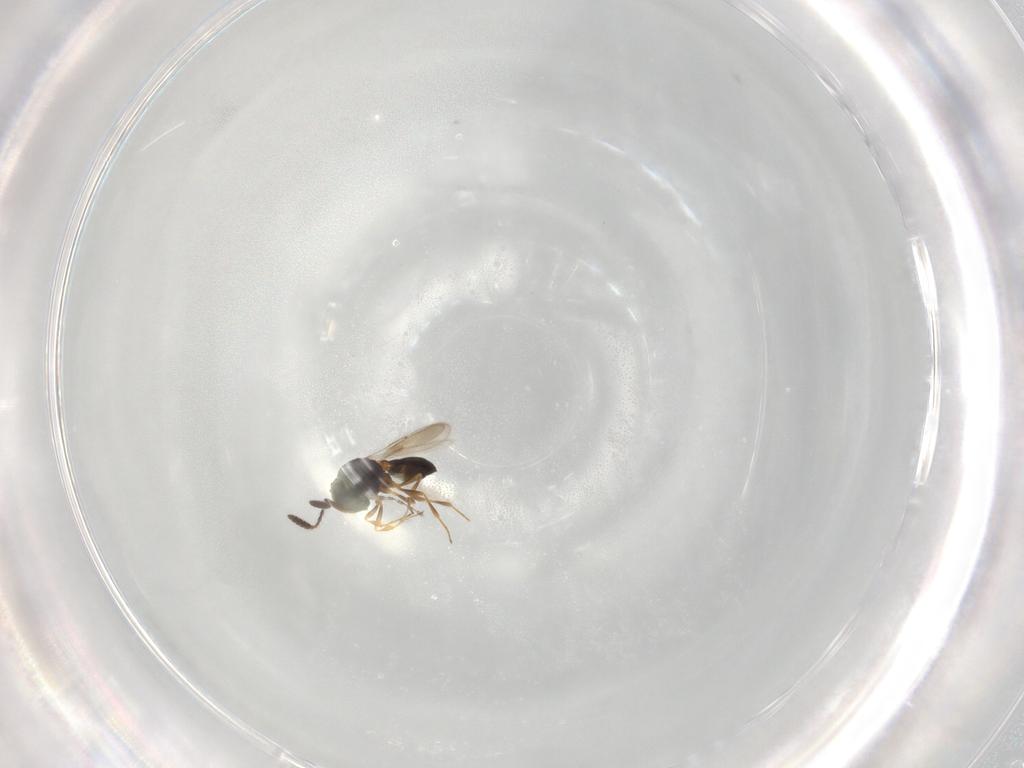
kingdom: Animalia
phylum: Arthropoda
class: Insecta
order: Hymenoptera
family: Scelionidae
